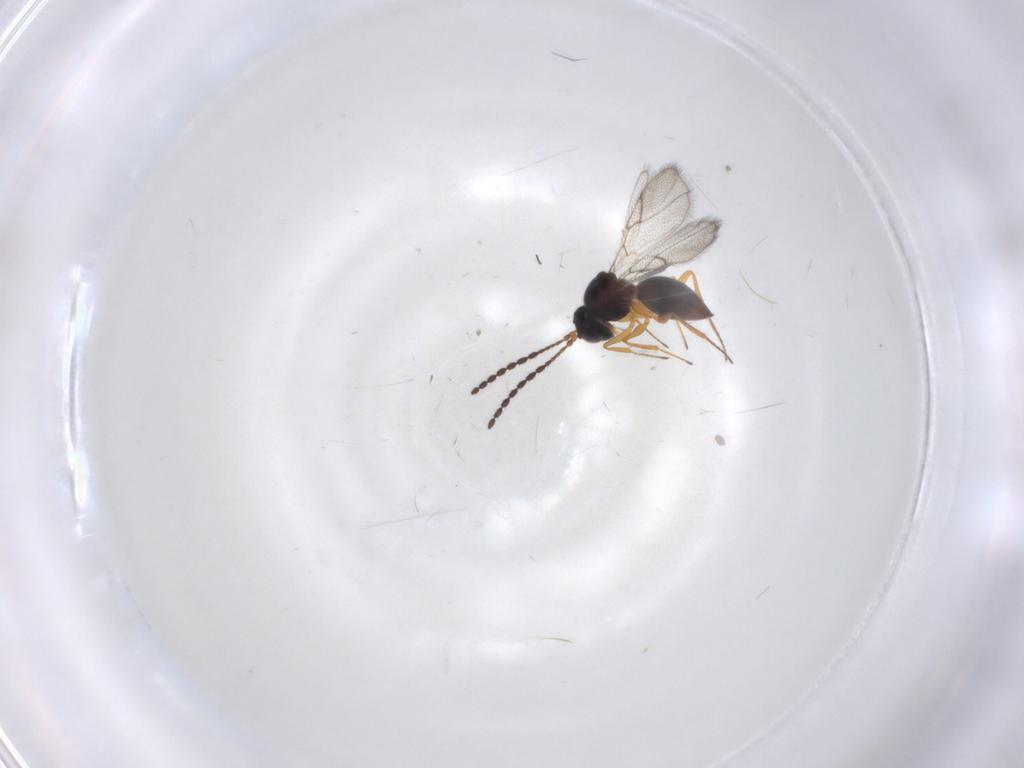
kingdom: Animalia
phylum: Arthropoda
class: Insecta
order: Hymenoptera
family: Figitidae
